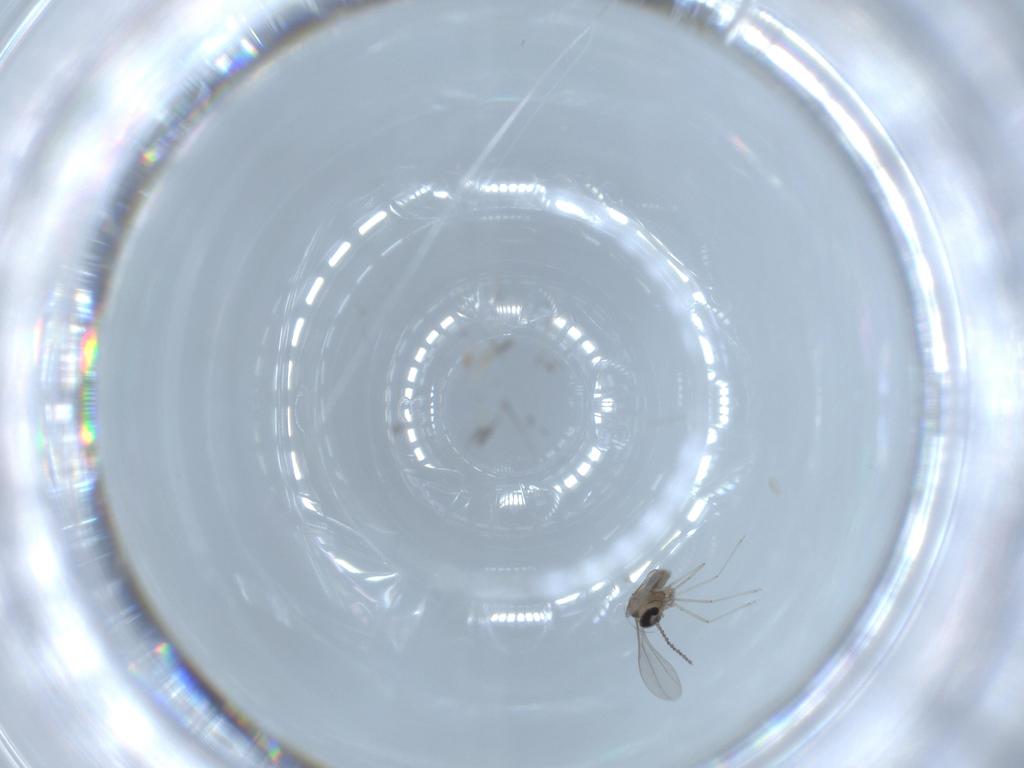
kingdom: Animalia
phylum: Arthropoda
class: Insecta
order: Diptera
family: Cecidomyiidae
